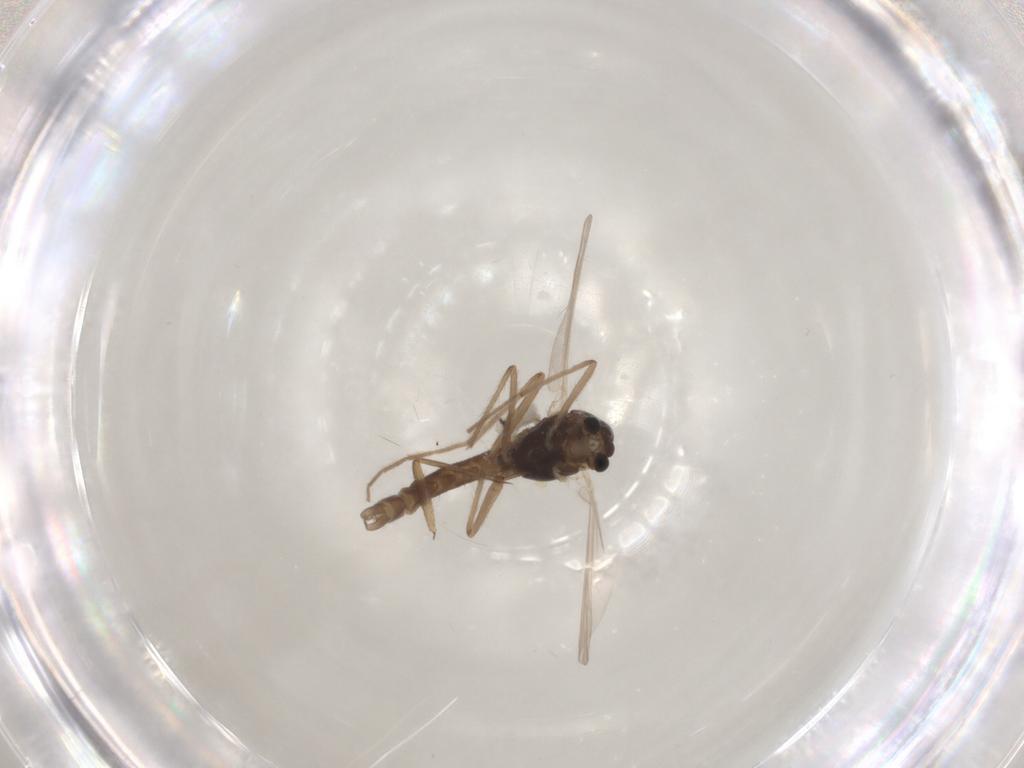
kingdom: Animalia
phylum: Arthropoda
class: Insecta
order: Diptera
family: Chironomidae
